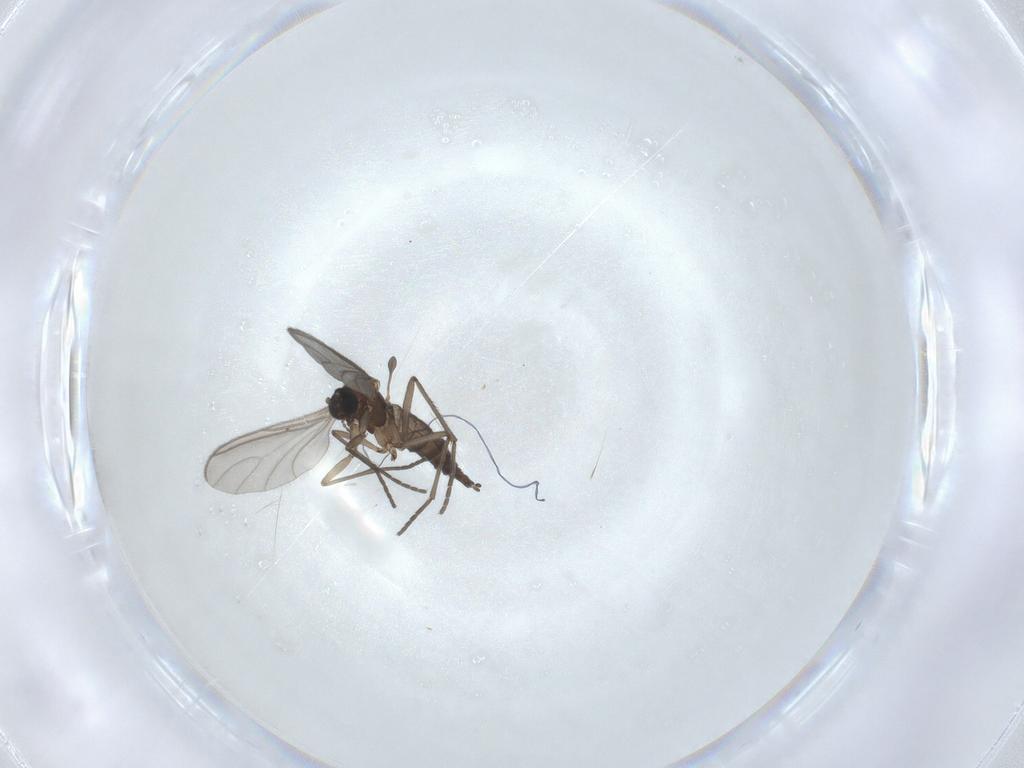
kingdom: Animalia
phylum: Arthropoda
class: Insecta
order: Diptera
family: Sciaridae
